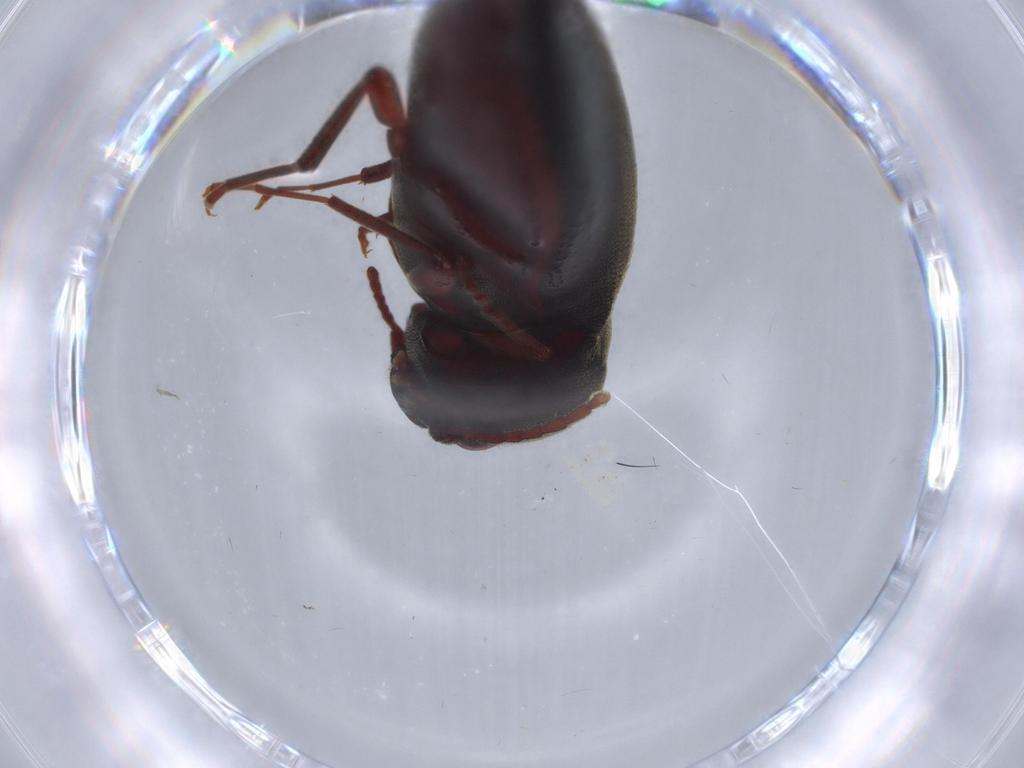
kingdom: Animalia
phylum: Arthropoda
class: Insecta
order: Coleoptera
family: Eucnemidae
